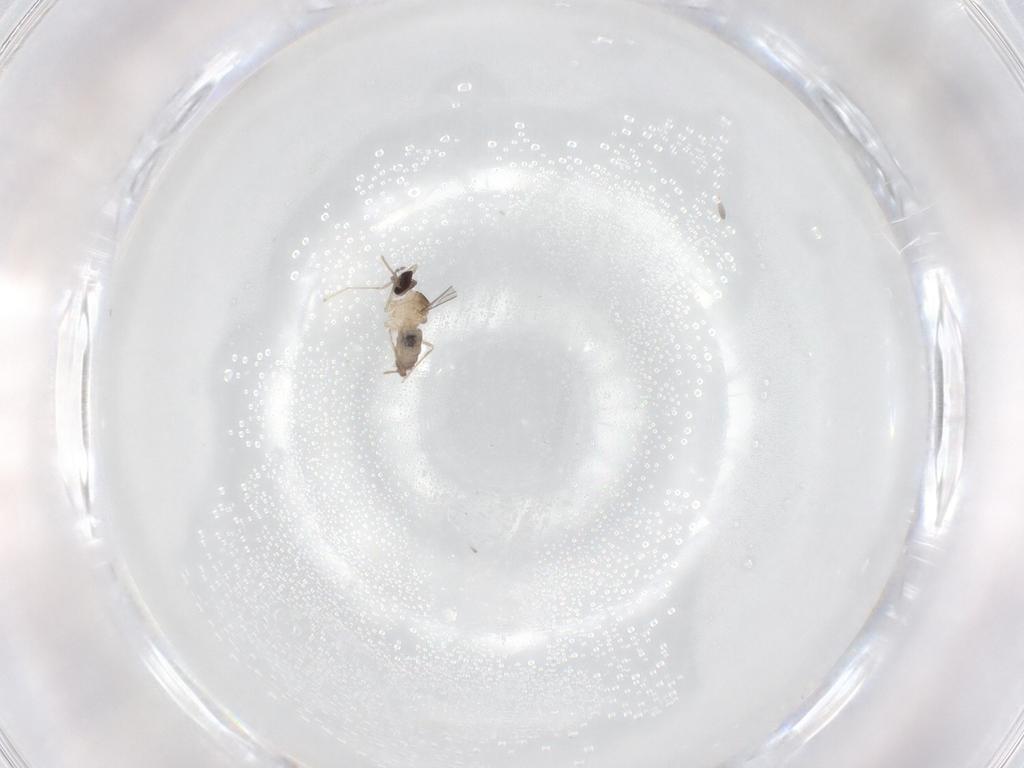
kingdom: Animalia
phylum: Arthropoda
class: Insecta
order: Diptera
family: Cecidomyiidae
